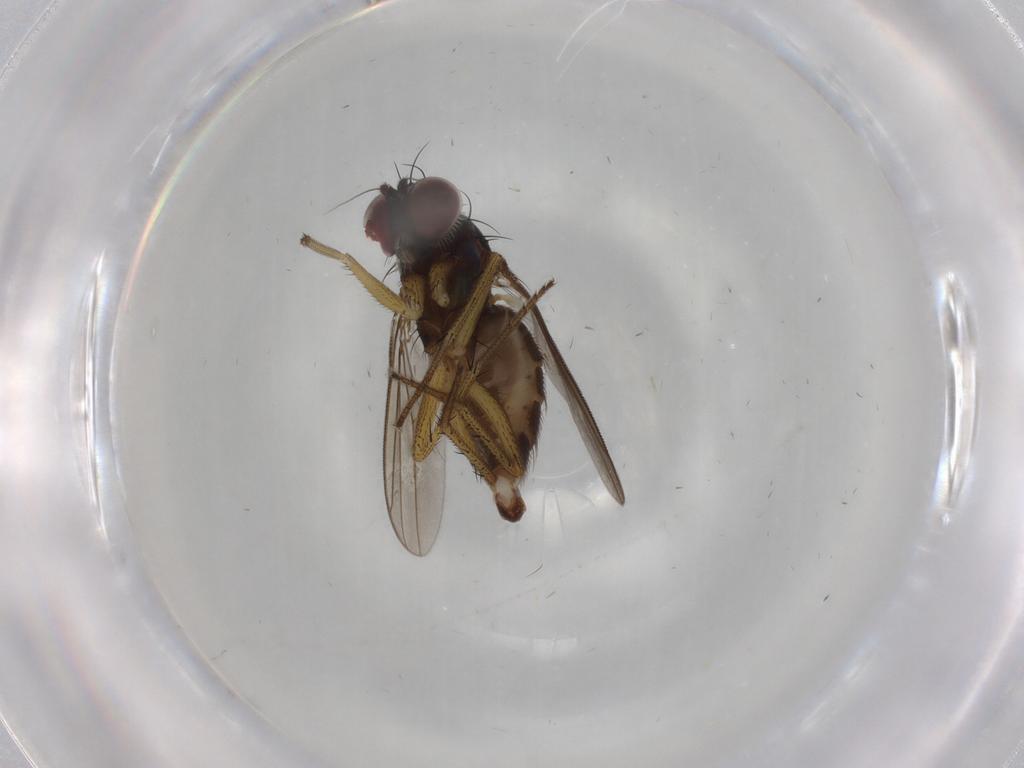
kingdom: Animalia
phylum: Arthropoda
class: Insecta
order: Diptera
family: Dolichopodidae
